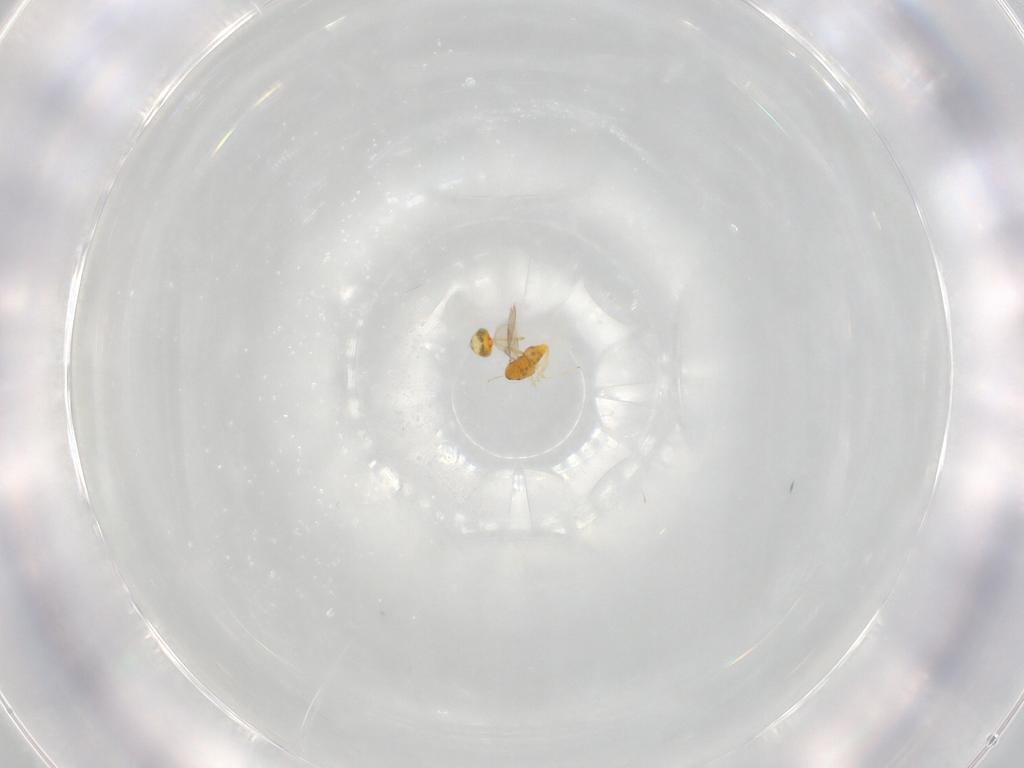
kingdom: Animalia
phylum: Arthropoda
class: Insecta
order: Hymenoptera
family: Aphelinidae
